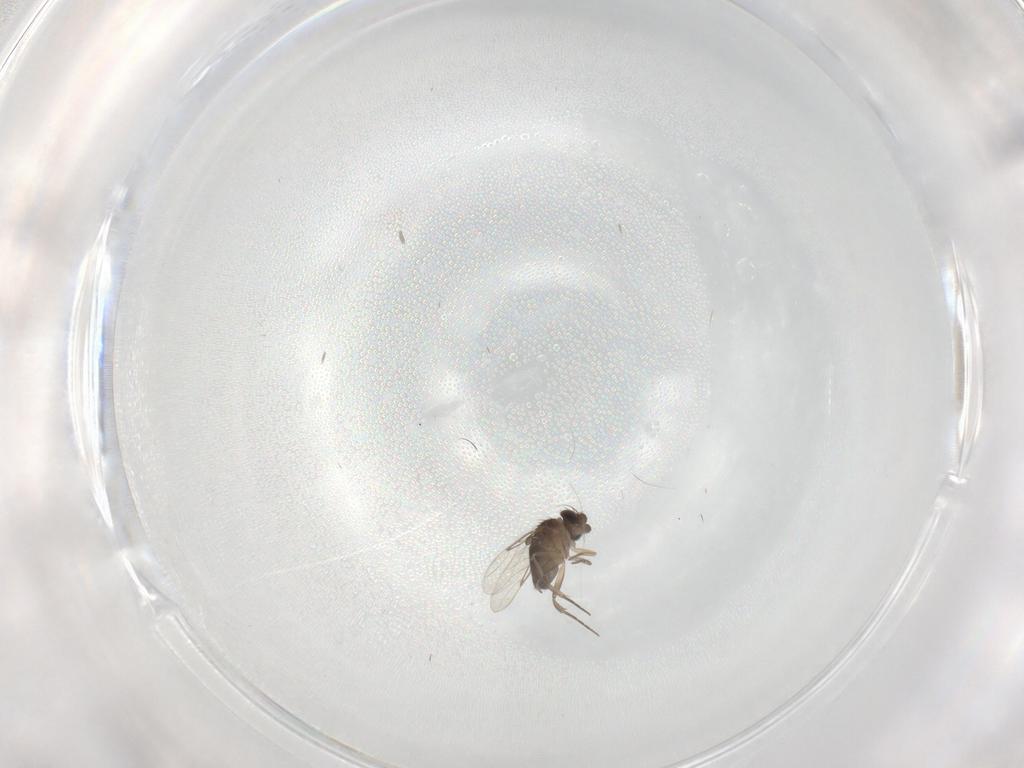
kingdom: Animalia
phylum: Arthropoda
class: Insecta
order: Diptera
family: Phoridae
